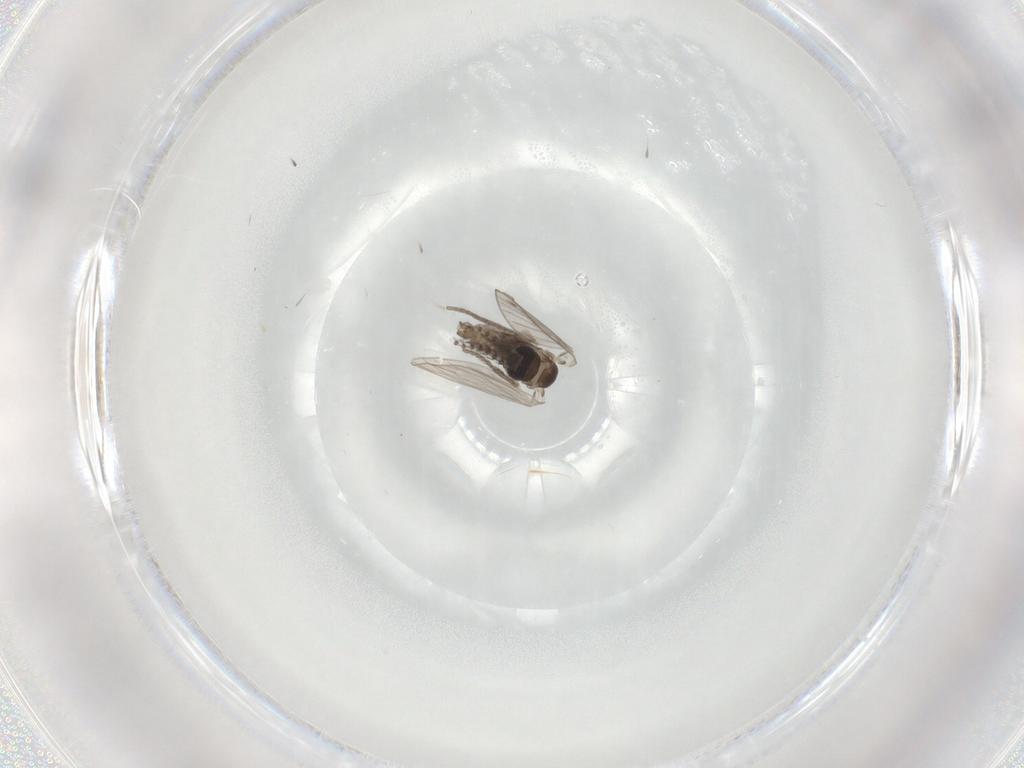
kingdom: Animalia
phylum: Arthropoda
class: Insecta
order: Diptera
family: Psychodidae
